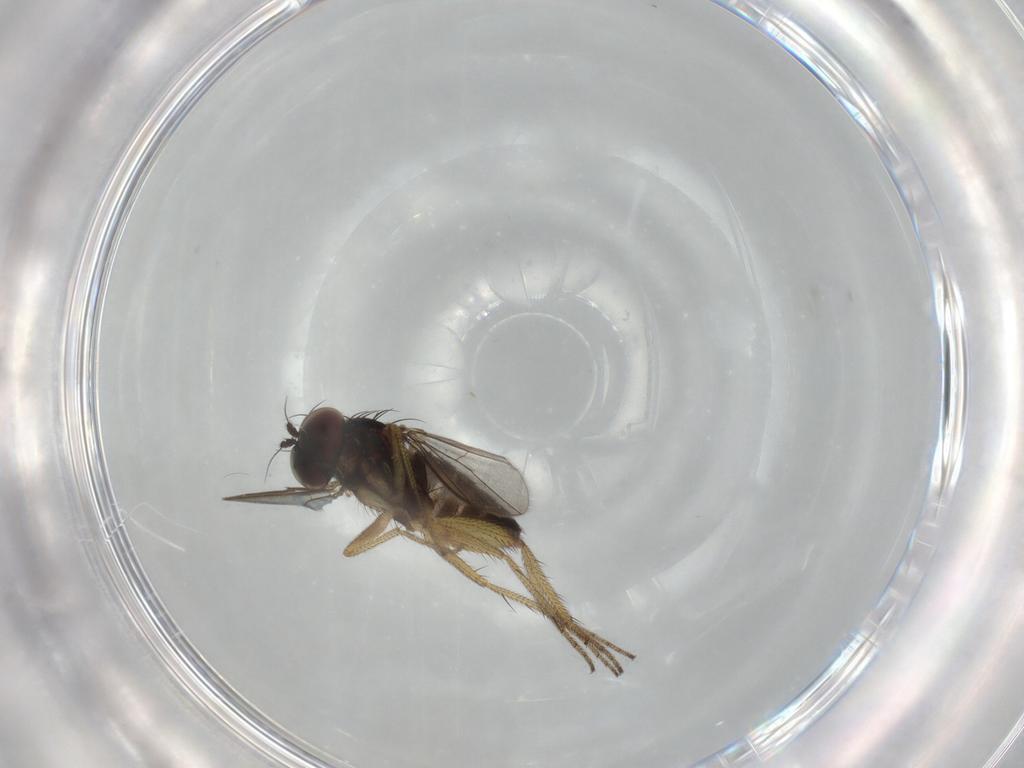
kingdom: Animalia
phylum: Arthropoda
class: Insecta
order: Diptera
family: Dolichopodidae
